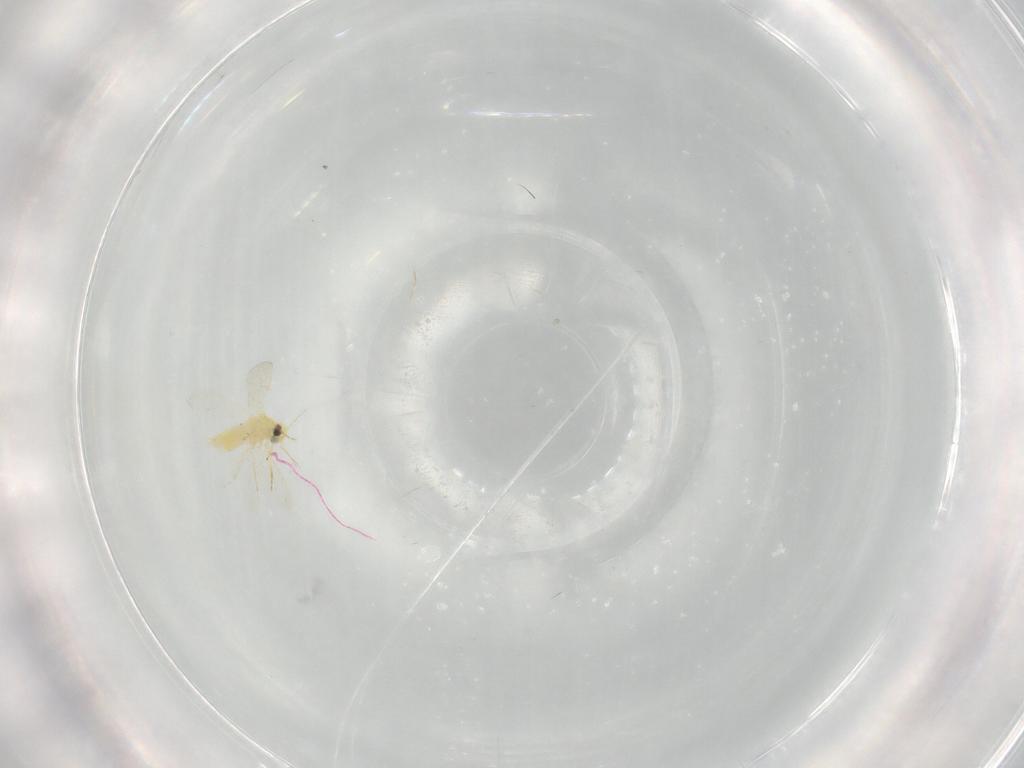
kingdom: Animalia
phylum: Arthropoda
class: Insecta
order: Hemiptera
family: Aleyrodidae
